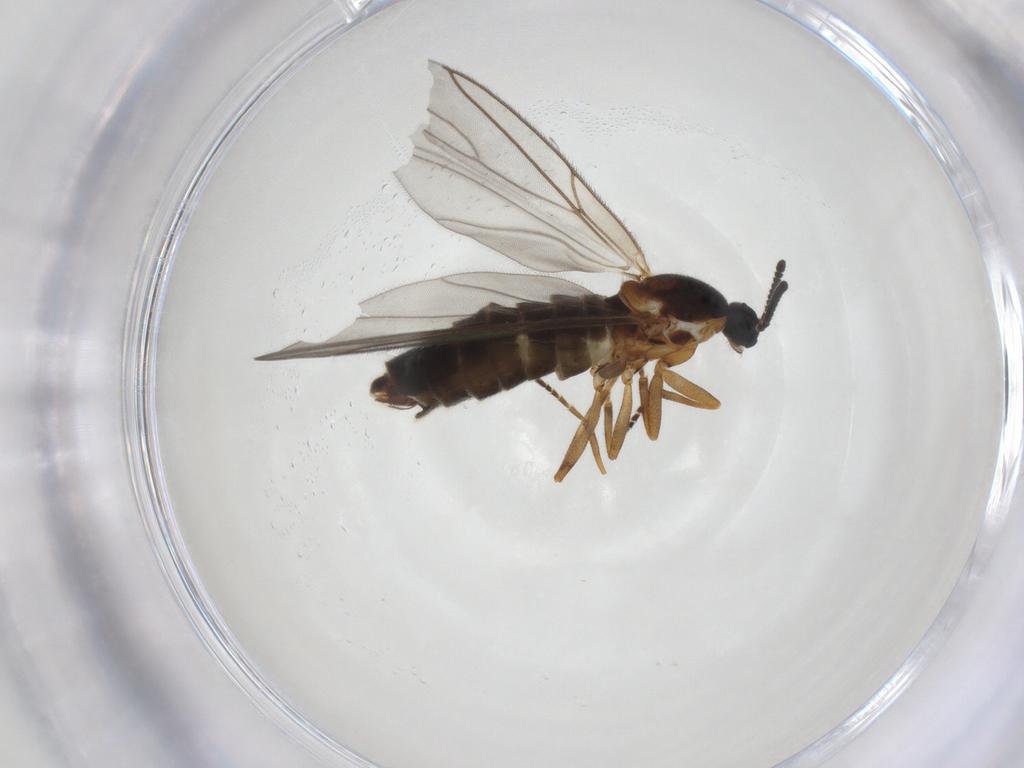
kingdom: Animalia
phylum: Arthropoda
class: Insecta
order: Diptera
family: Scatopsidae
